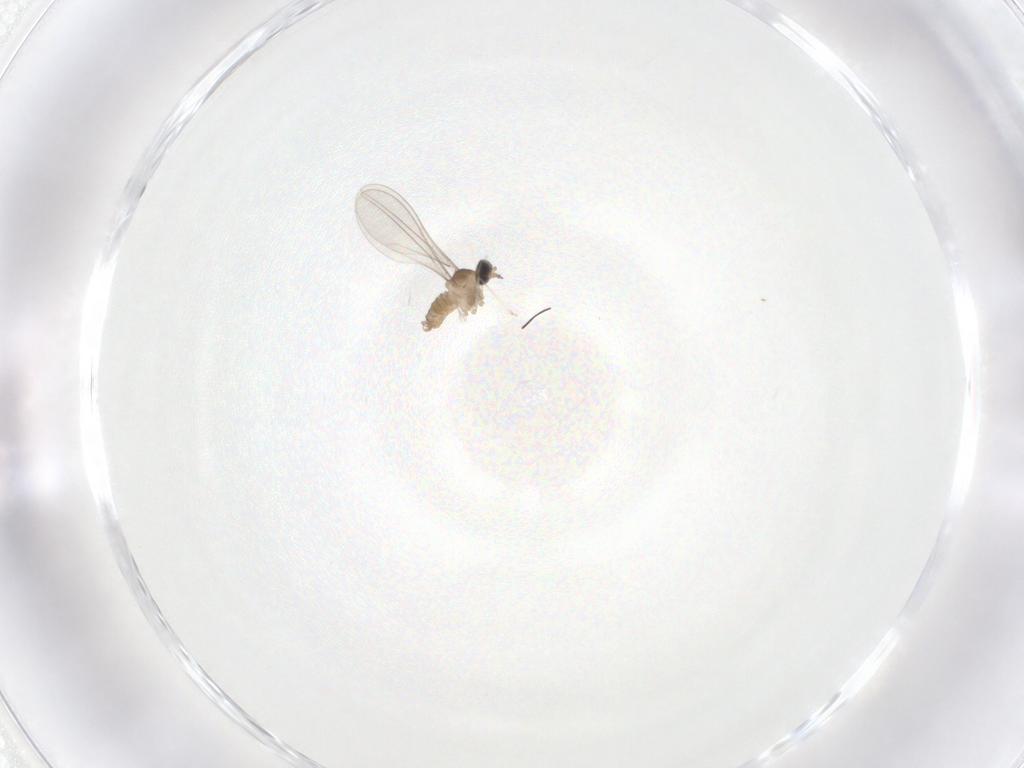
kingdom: Animalia
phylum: Arthropoda
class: Insecta
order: Diptera
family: Cecidomyiidae
